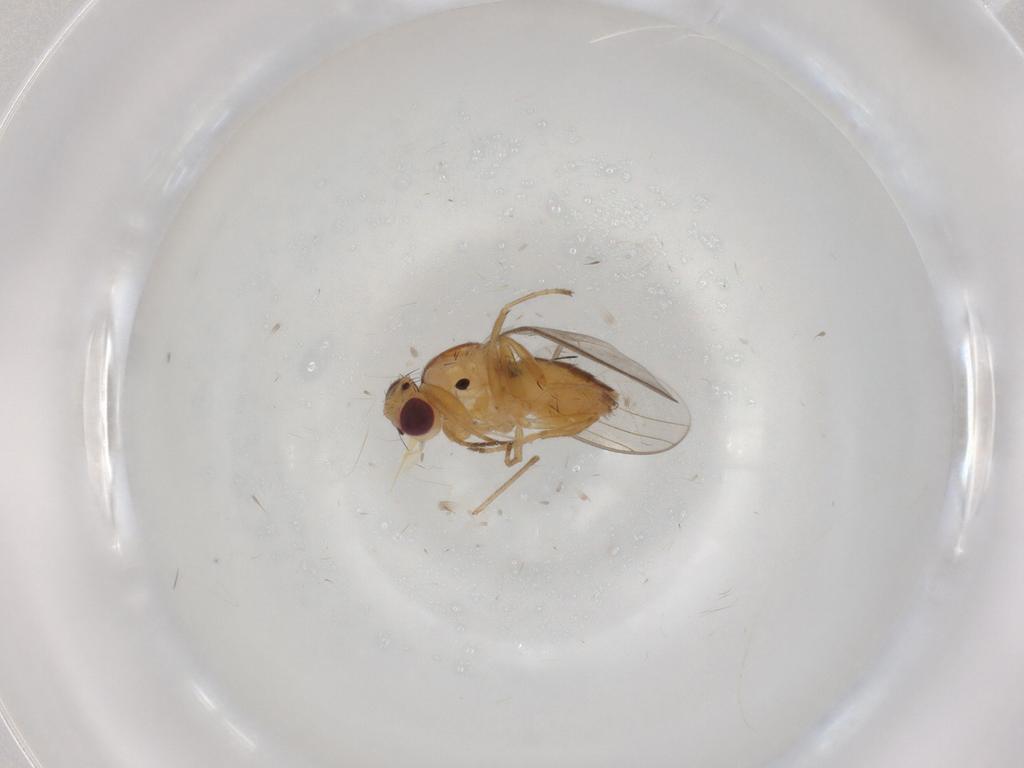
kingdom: Animalia
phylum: Arthropoda
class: Insecta
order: Diptera
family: Chloropidae
